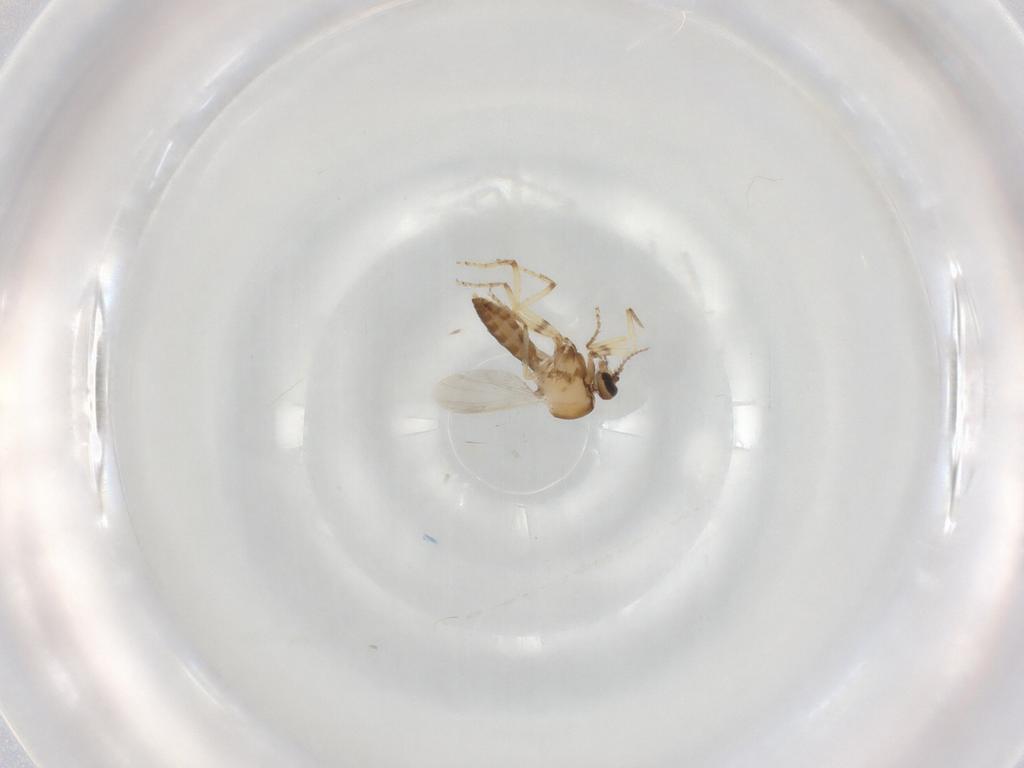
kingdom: Animalia
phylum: Arthropoda
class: Insecta
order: Diptera
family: Ceratopogonidae
